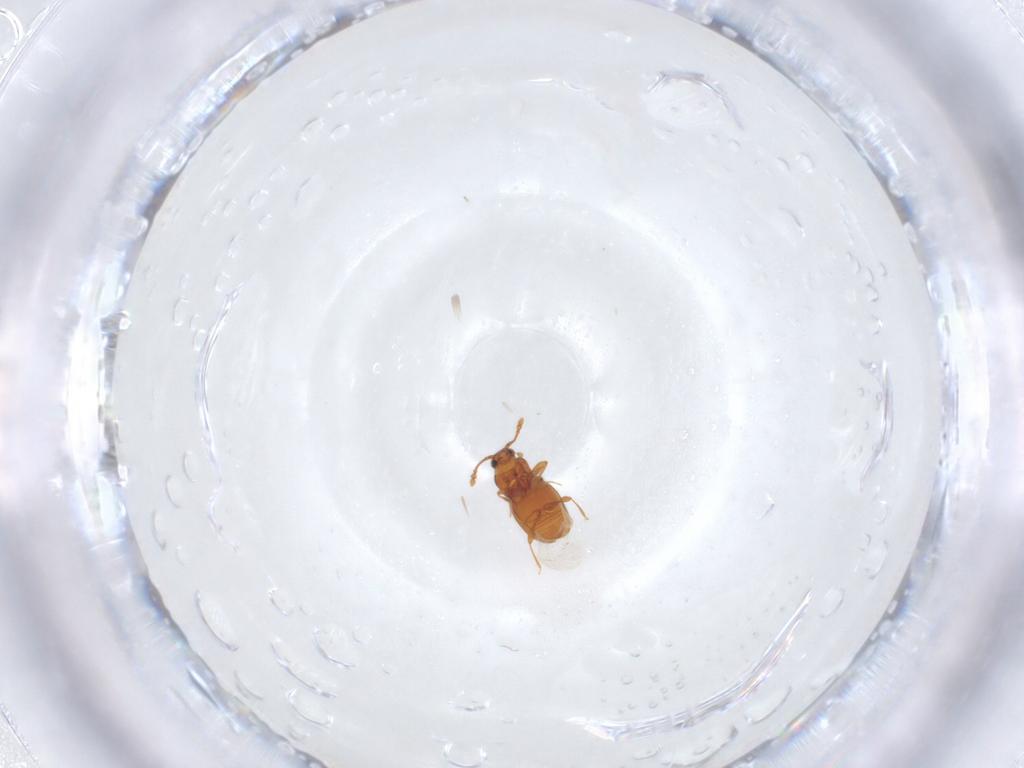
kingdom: Animalia
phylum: Arthropoda
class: Insecta
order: Coleoptera
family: Staphylinidae
